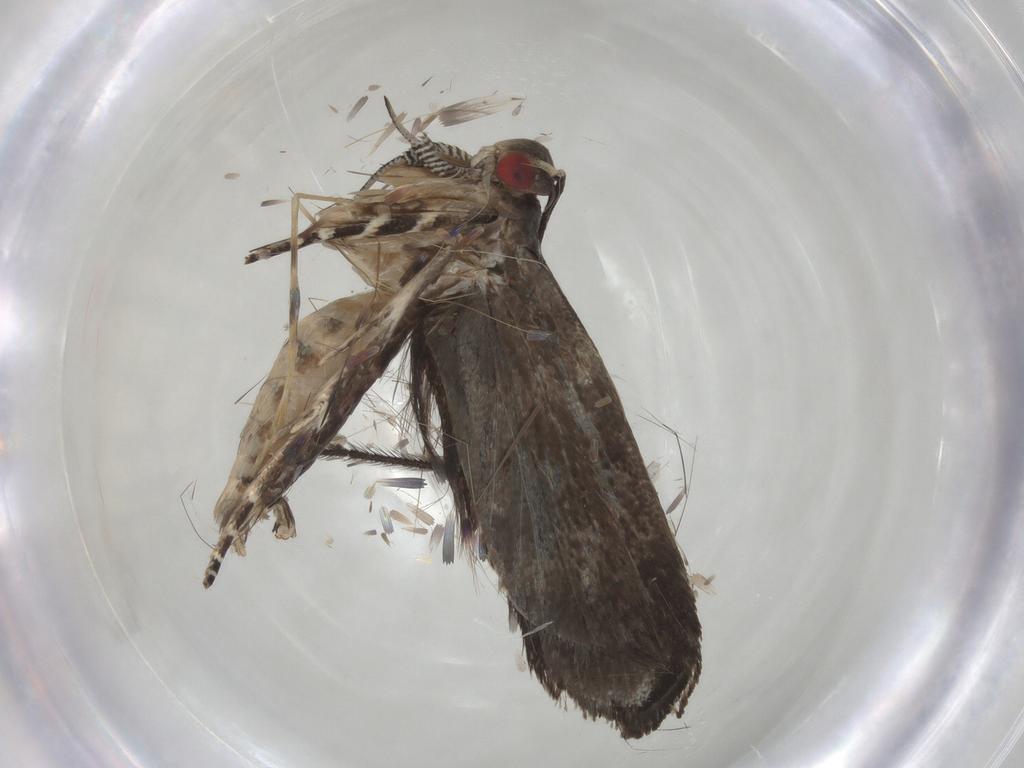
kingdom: Animalia
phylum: Arthropoda
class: Insecta
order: Lepidoptera
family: Gelechiidae
